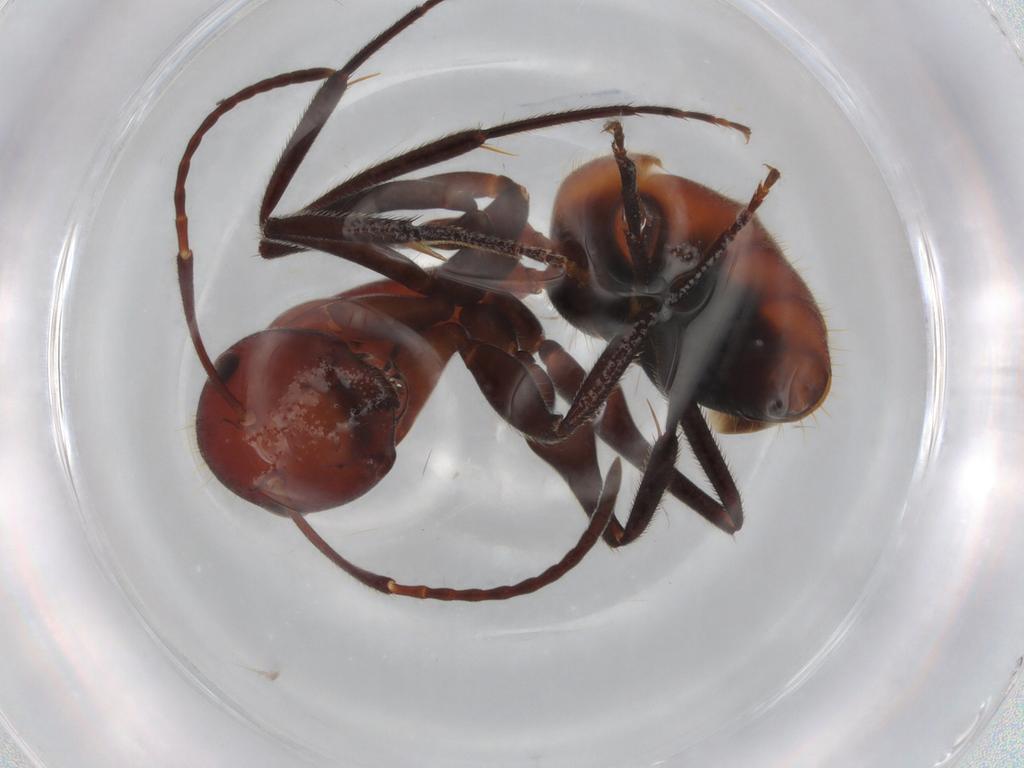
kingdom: Animalia
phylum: Arthropoda
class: Insecta
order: Hymenoptera
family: Formicidae
